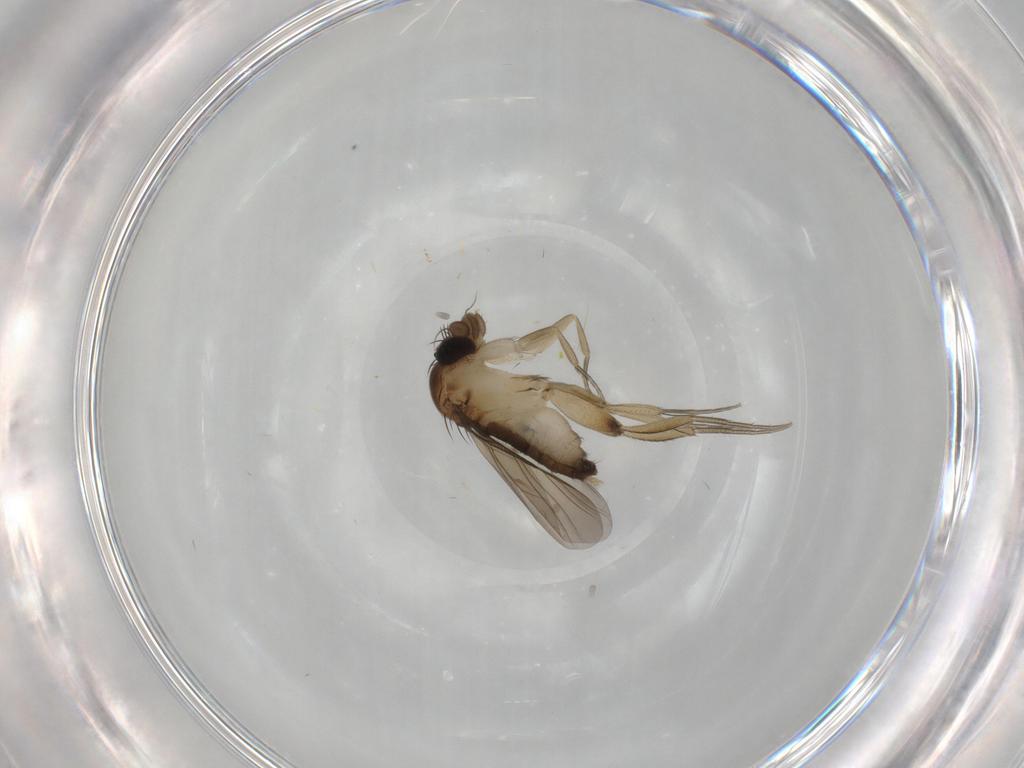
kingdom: Animalia
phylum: Arthropoda
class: Insecta
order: Diptera
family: Phoridae
